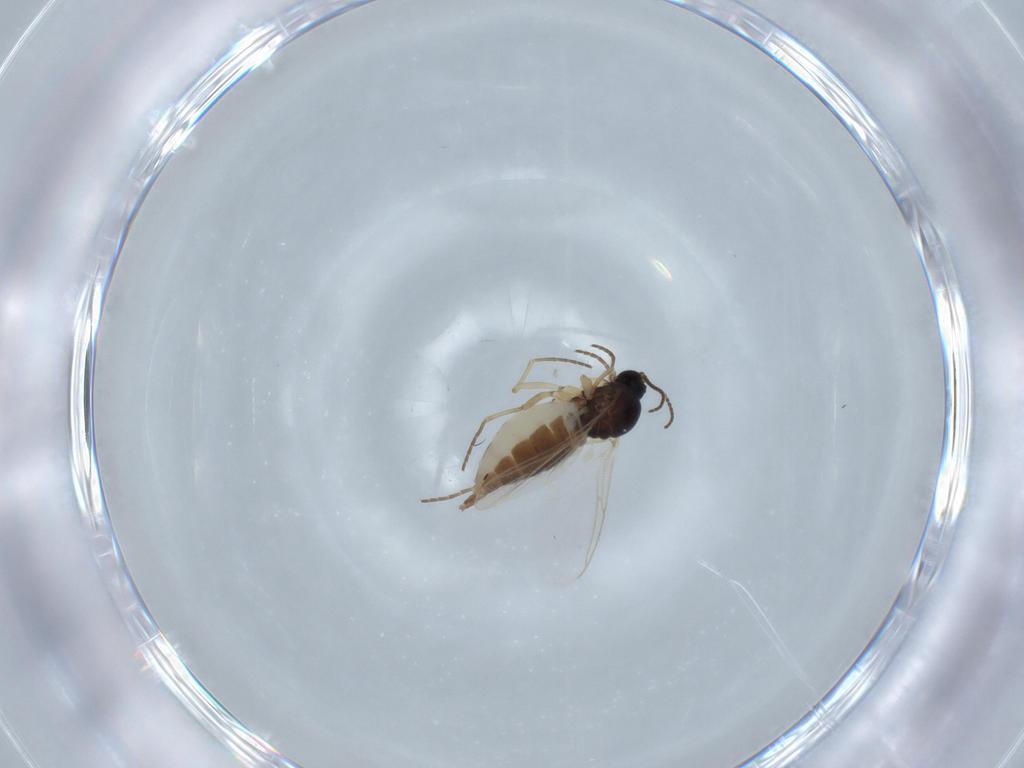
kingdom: Animalia
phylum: Arthropoda
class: Insecta
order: Diptera
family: Sciaridae
